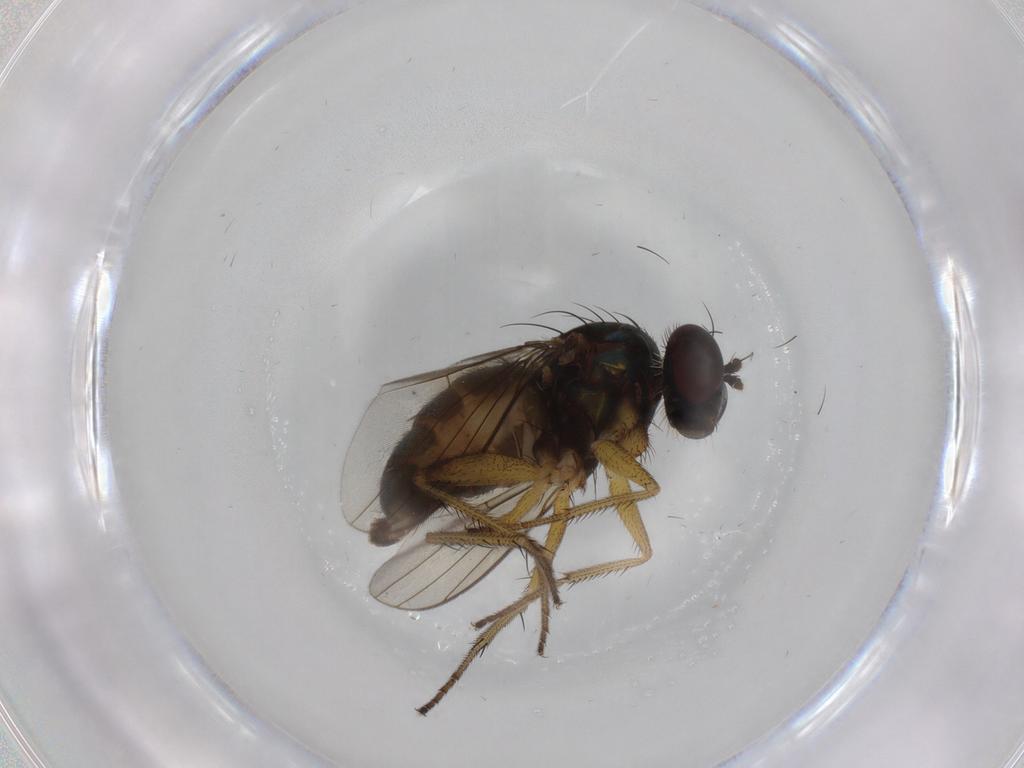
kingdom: Animalia
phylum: Arthropoda
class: Insecta
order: Diptera
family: Dolichopodidae
